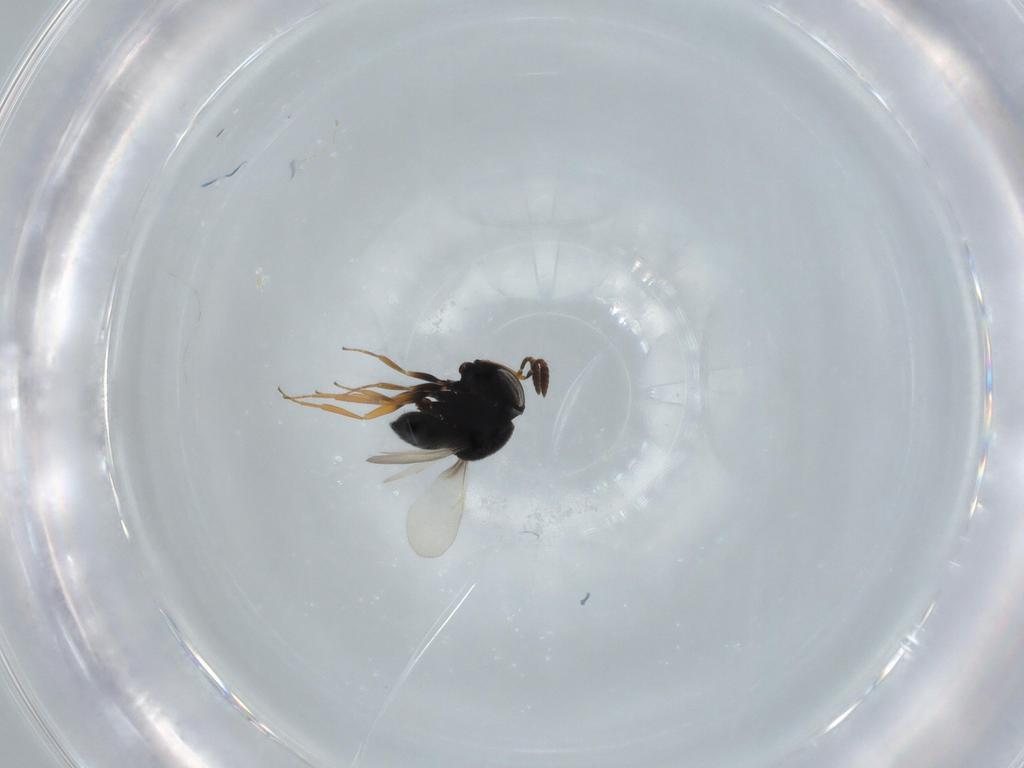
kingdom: Animalia
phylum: Arthropoda
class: Insecta
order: Hymenoptera
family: Scelionidae
